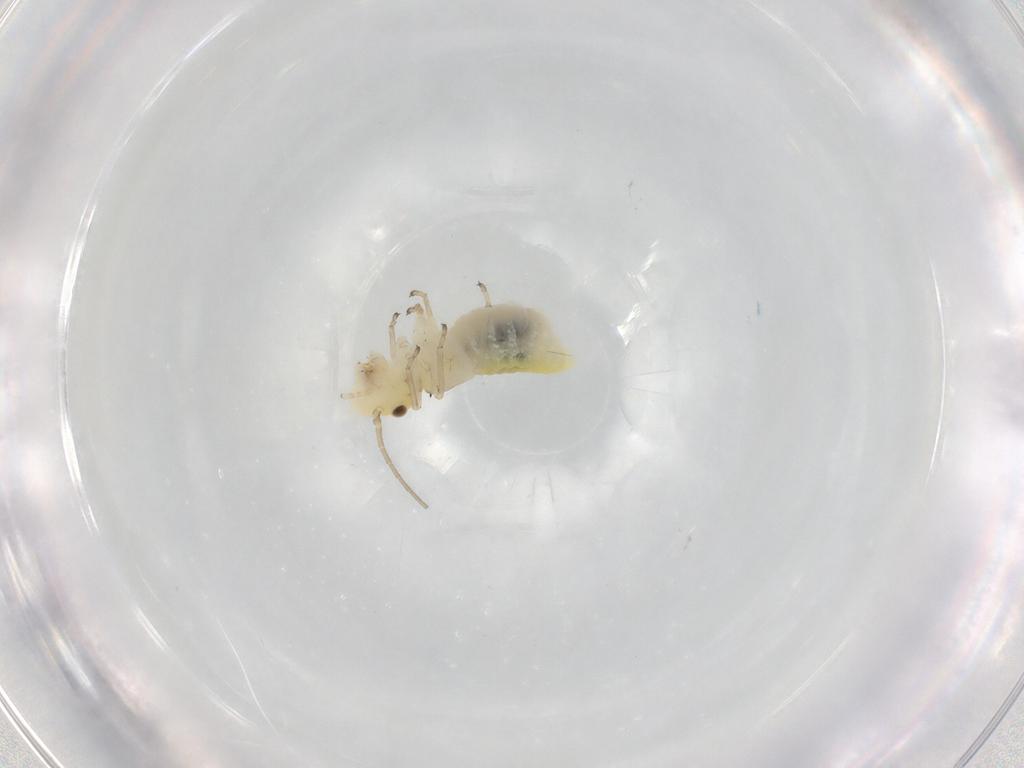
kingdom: Animalia
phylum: Arthropoda
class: Insecta
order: Psocodea
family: Caeciliusidae
